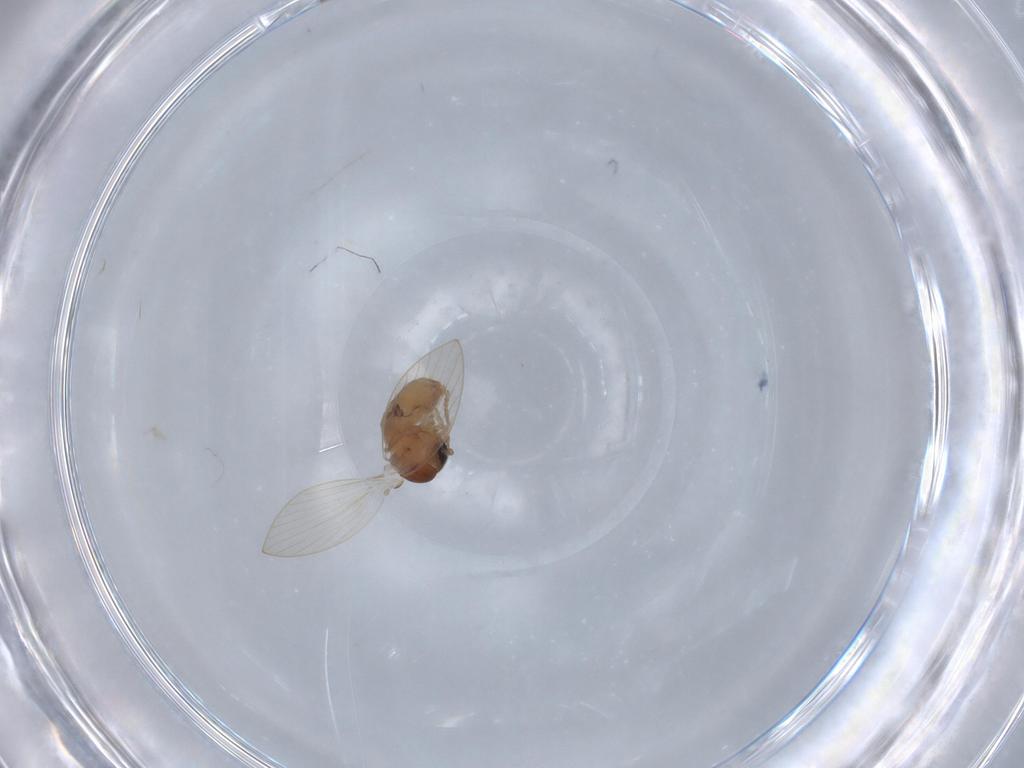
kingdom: Animalia
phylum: Arthropoda
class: Insecta
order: Diptera
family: Psychodidae
